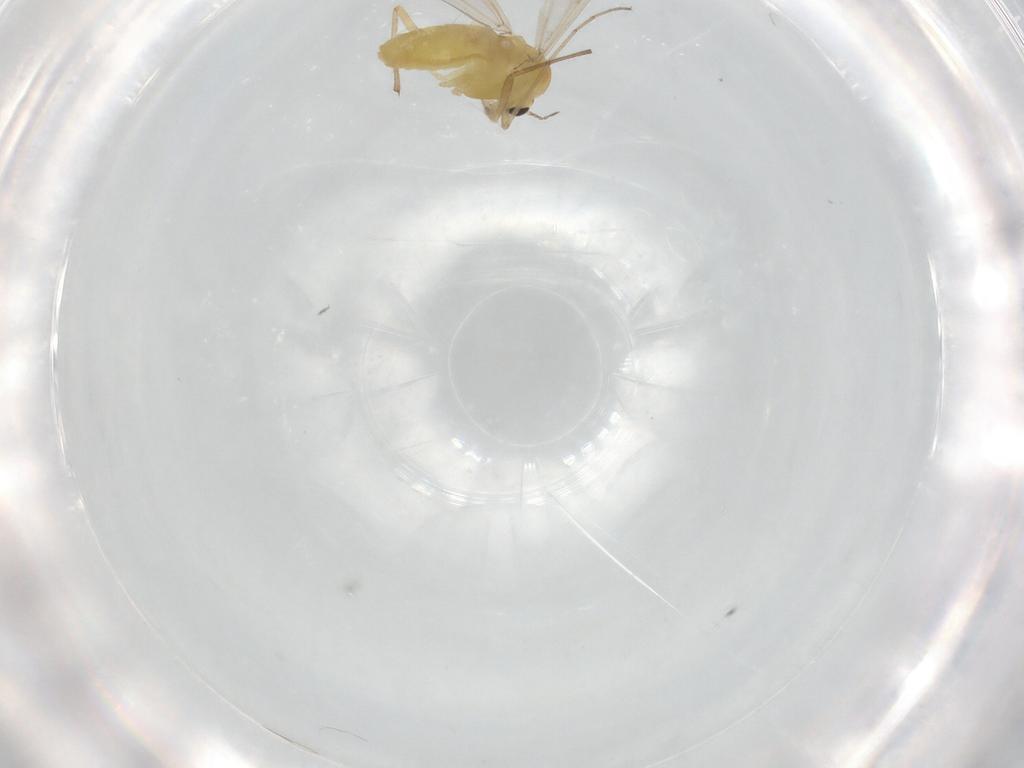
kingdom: Animalia
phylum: Arthropoda
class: Insecta
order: Diptera
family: Chironomidae
